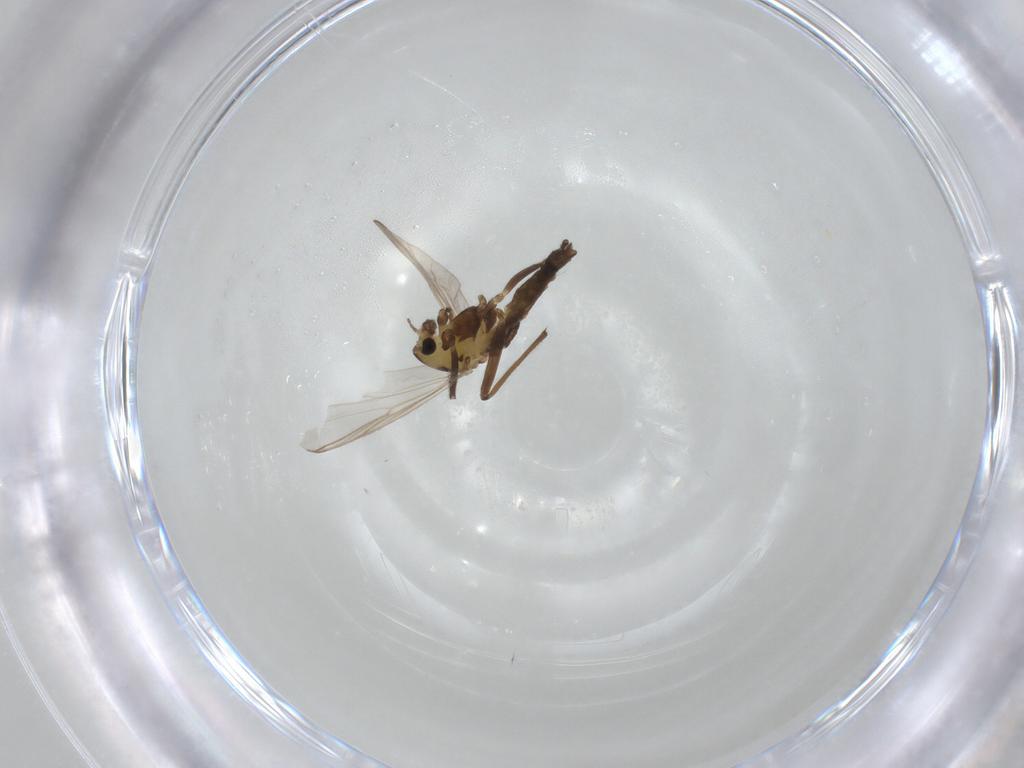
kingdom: Animalia
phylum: Arthropoda
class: Insecta
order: Diptera
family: Chironomidae
